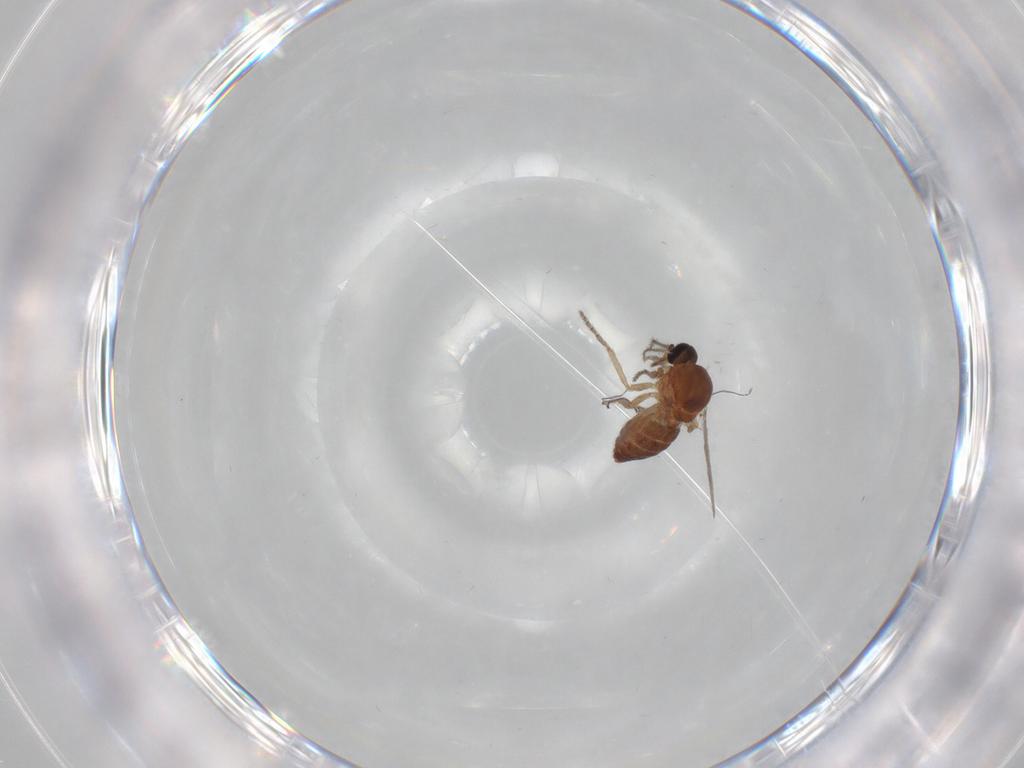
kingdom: Animalia
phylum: Arthropoda
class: Insecta
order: Diptera
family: Ceratopogonidae
